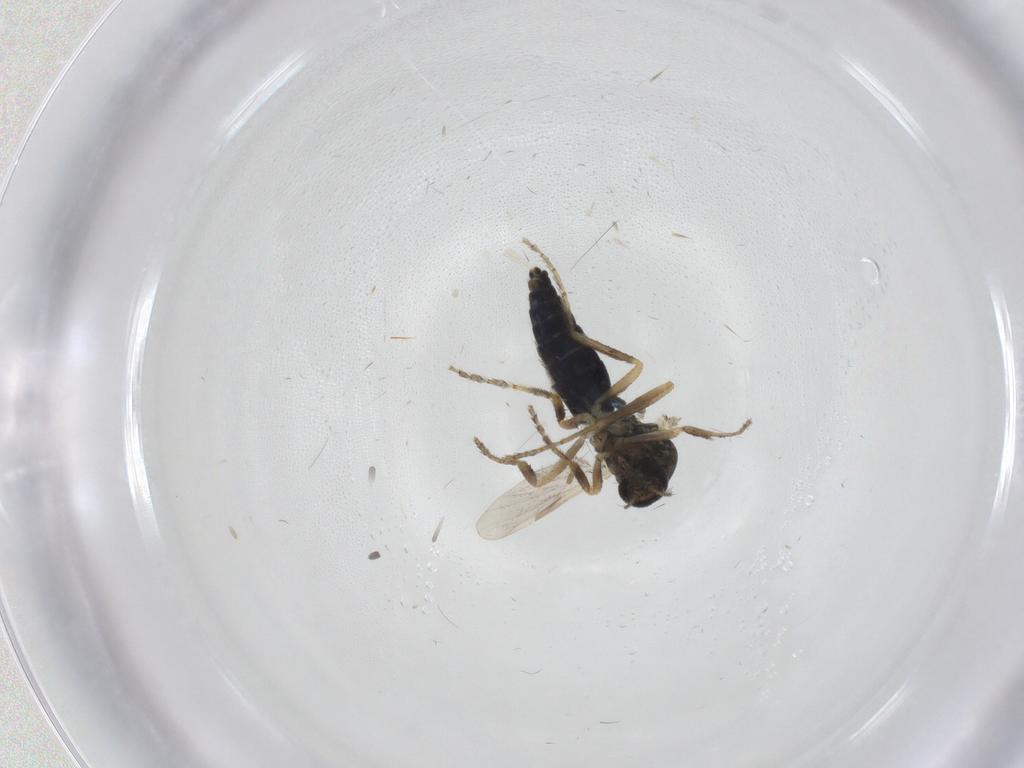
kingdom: Animalia
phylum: Arthropoda
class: Insecta
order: Diptera
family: Ceratopogonidae
